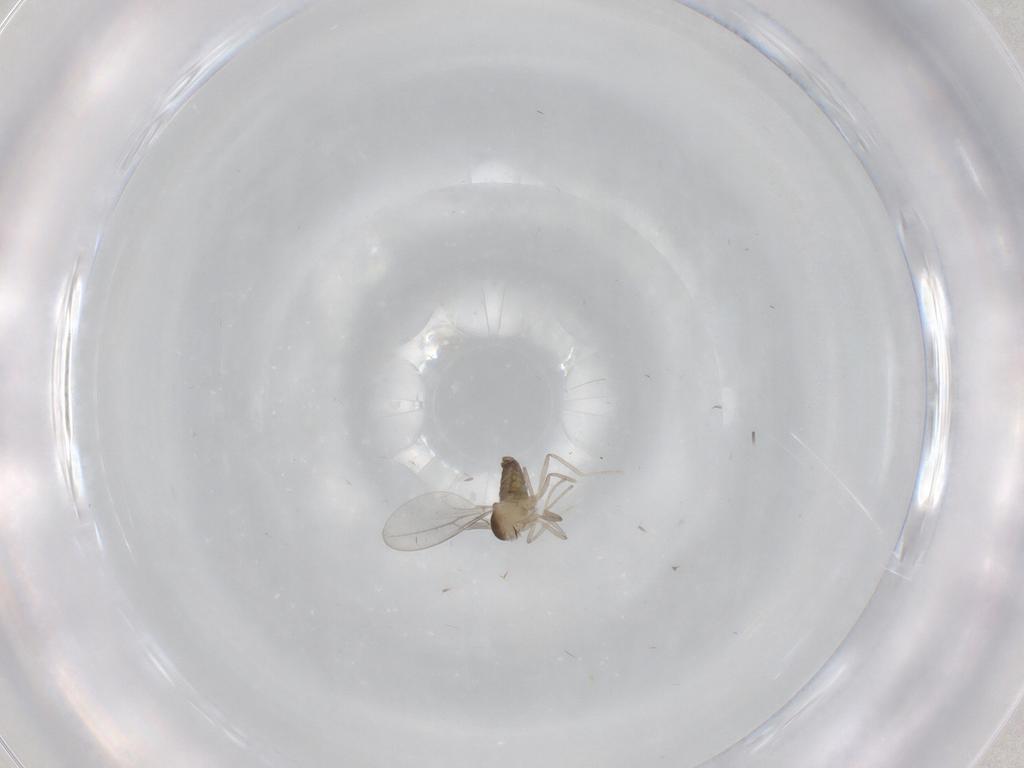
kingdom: Animalia
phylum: Arthropoda
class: Insecta
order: Diptera
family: Cecidomyiidae
